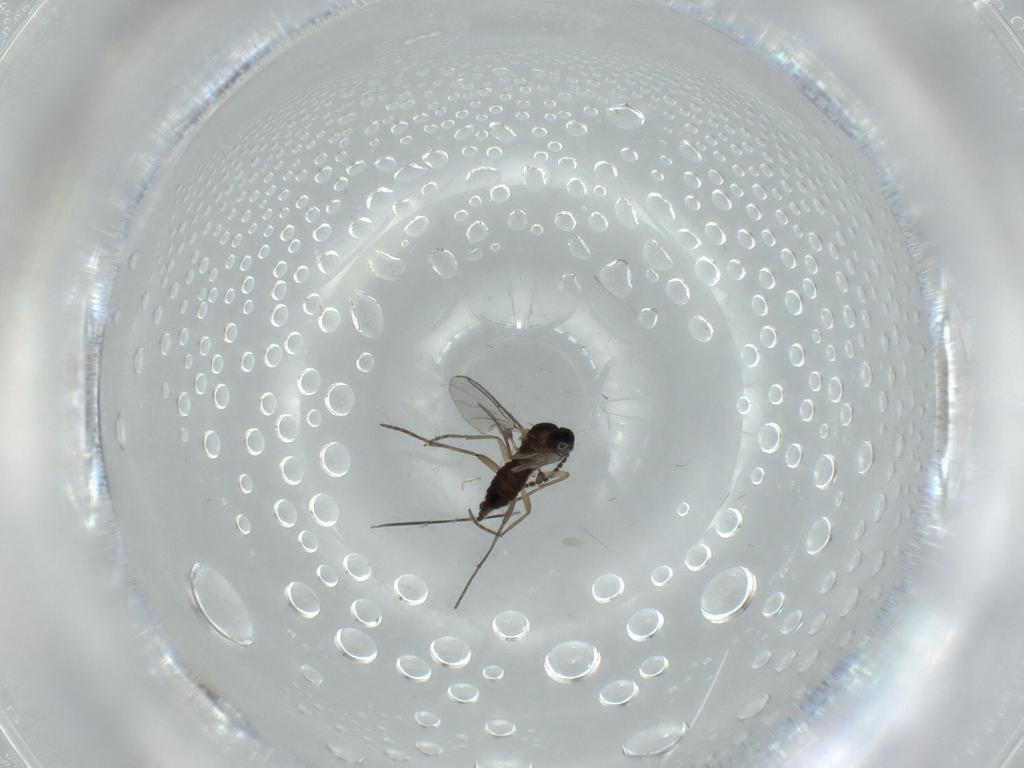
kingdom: Animalia
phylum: Arthropoda
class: Insecta
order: Diptera
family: Sciaridae
